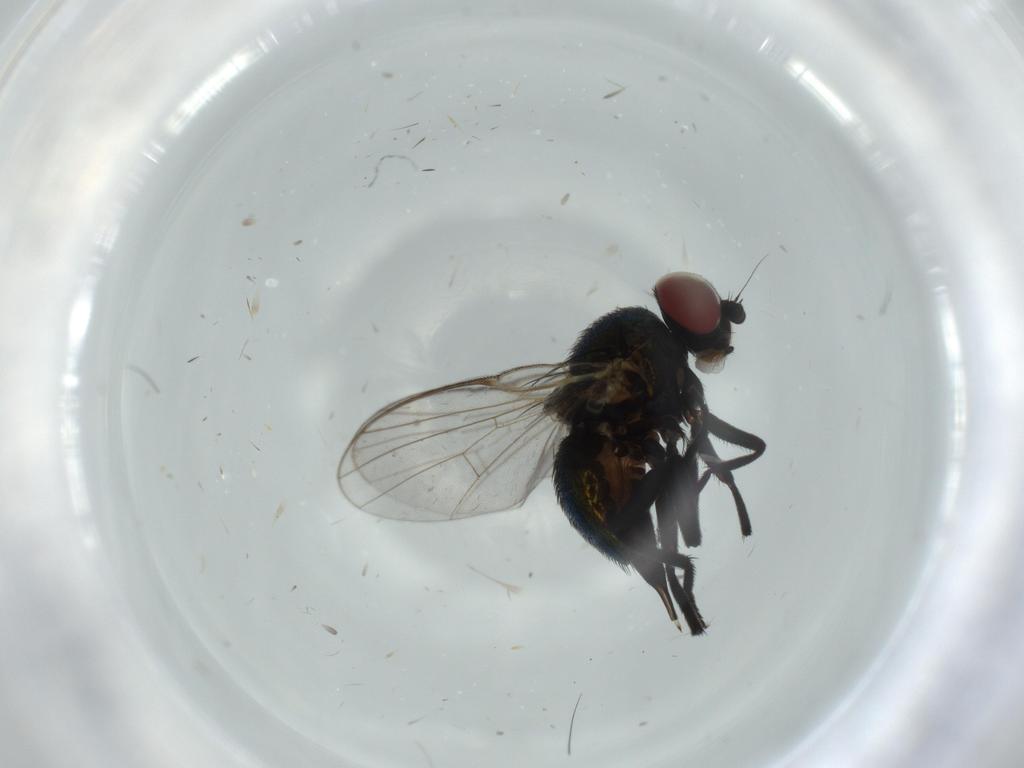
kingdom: Animalia
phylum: Arthropoda
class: Insecta
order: Diptera
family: Agromyzidae
